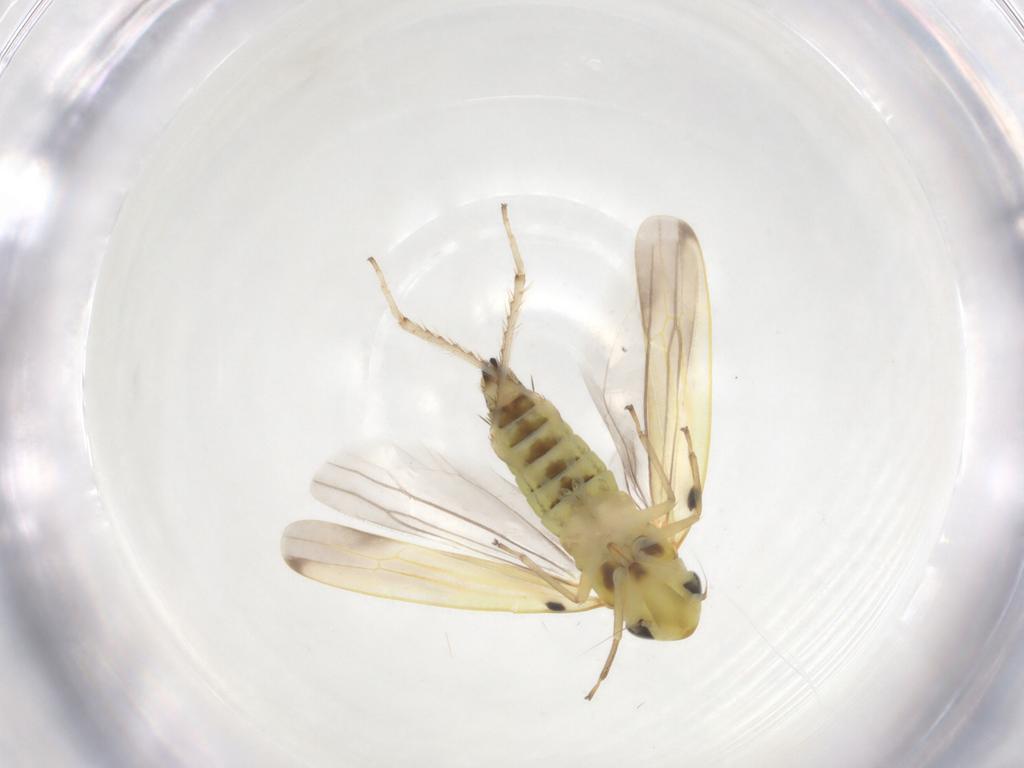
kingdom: Animalia
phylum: Arthropoda
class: Insecta
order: Hemiptera
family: Cicadellidae
